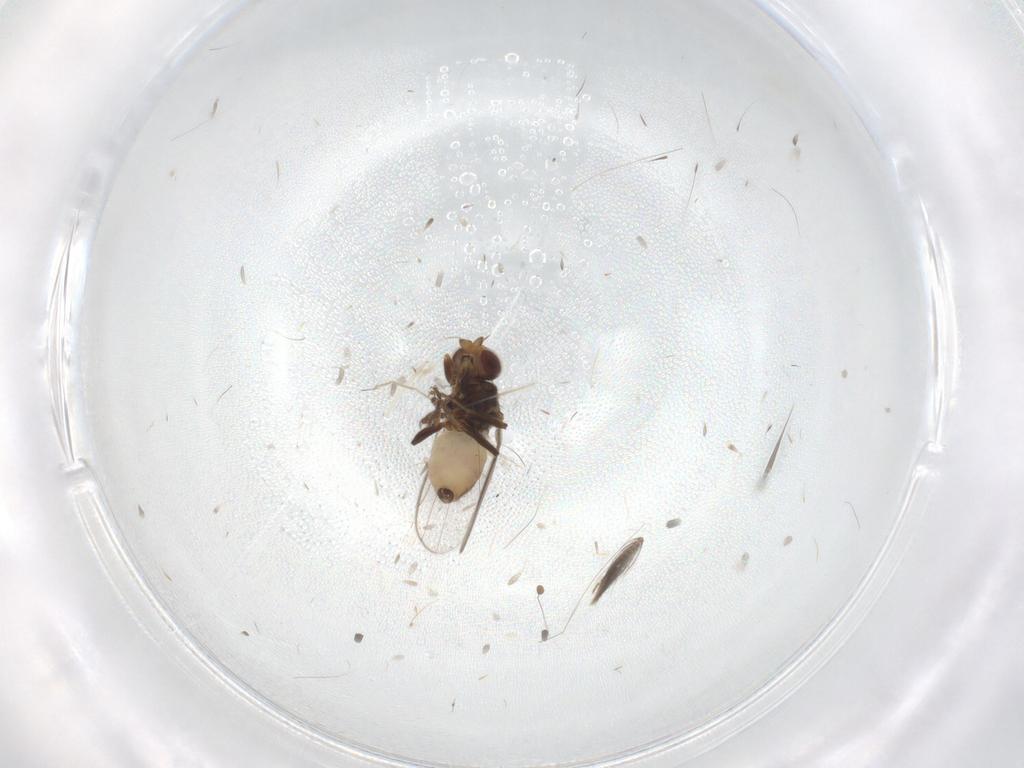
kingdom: Animalia
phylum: Arthropoda
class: Insecta
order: Diptera
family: Chloropidae
